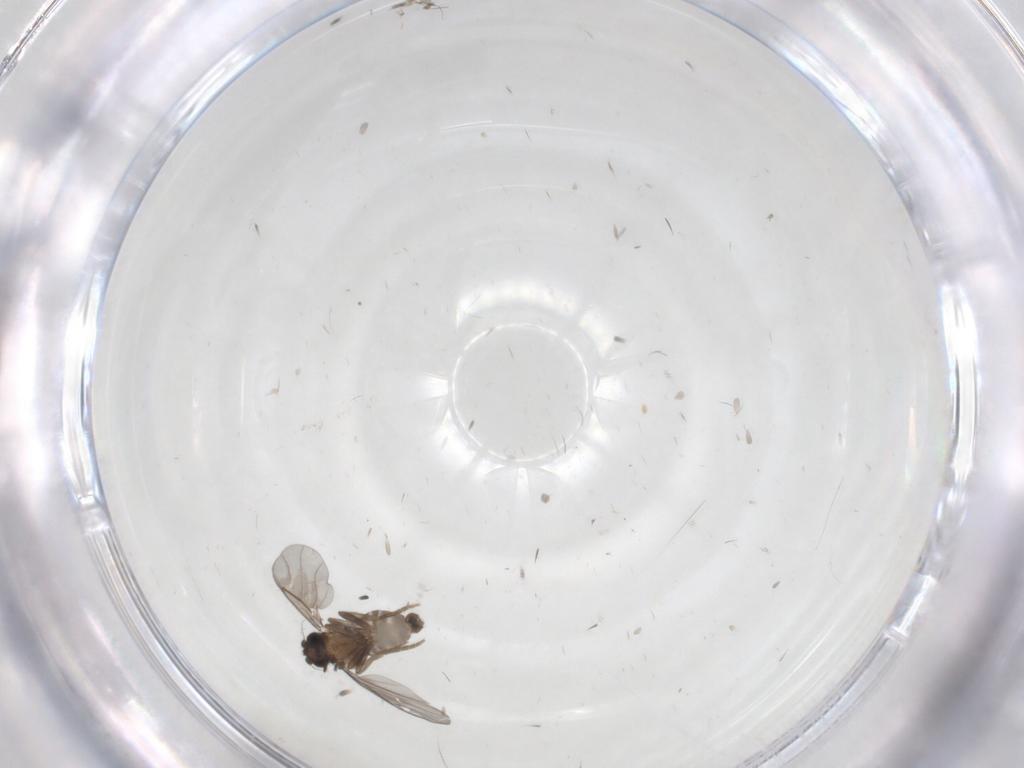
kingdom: Animalia
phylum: Arthropoda
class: Insecta
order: Diptera
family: Phoridae
